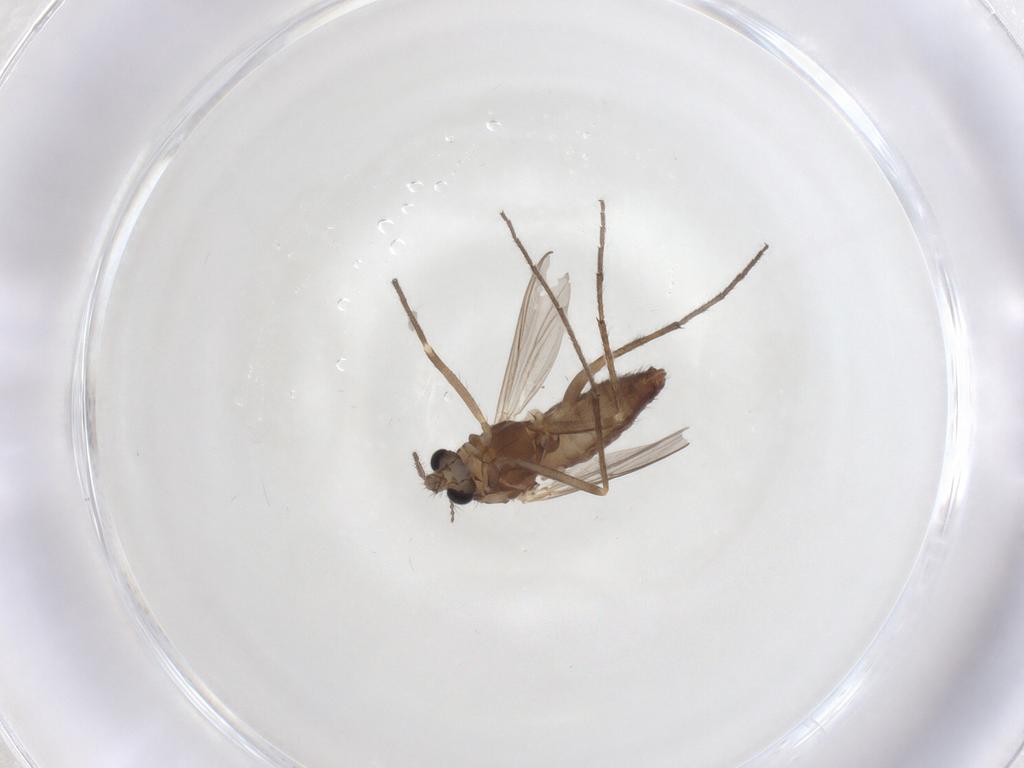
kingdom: Animalia
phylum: Arthropoda
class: Insecta
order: Diptera
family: Chironomidae
